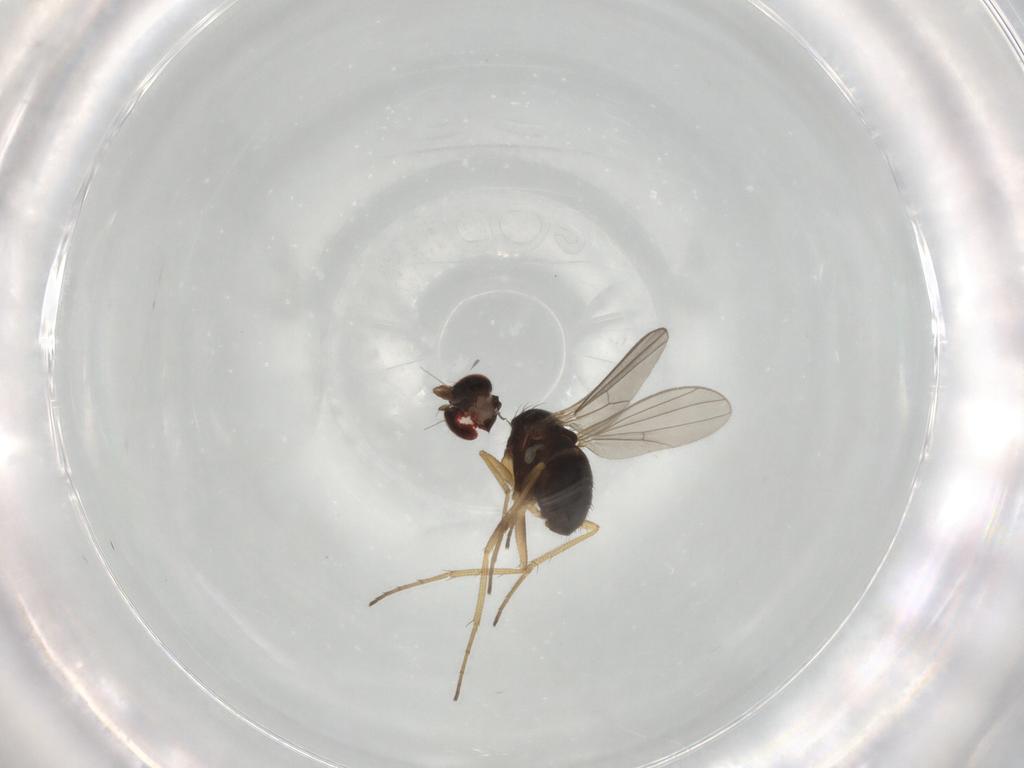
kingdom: Animalia
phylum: Arthropoda
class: Insecta
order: Diptera
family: Dolichopodidae
